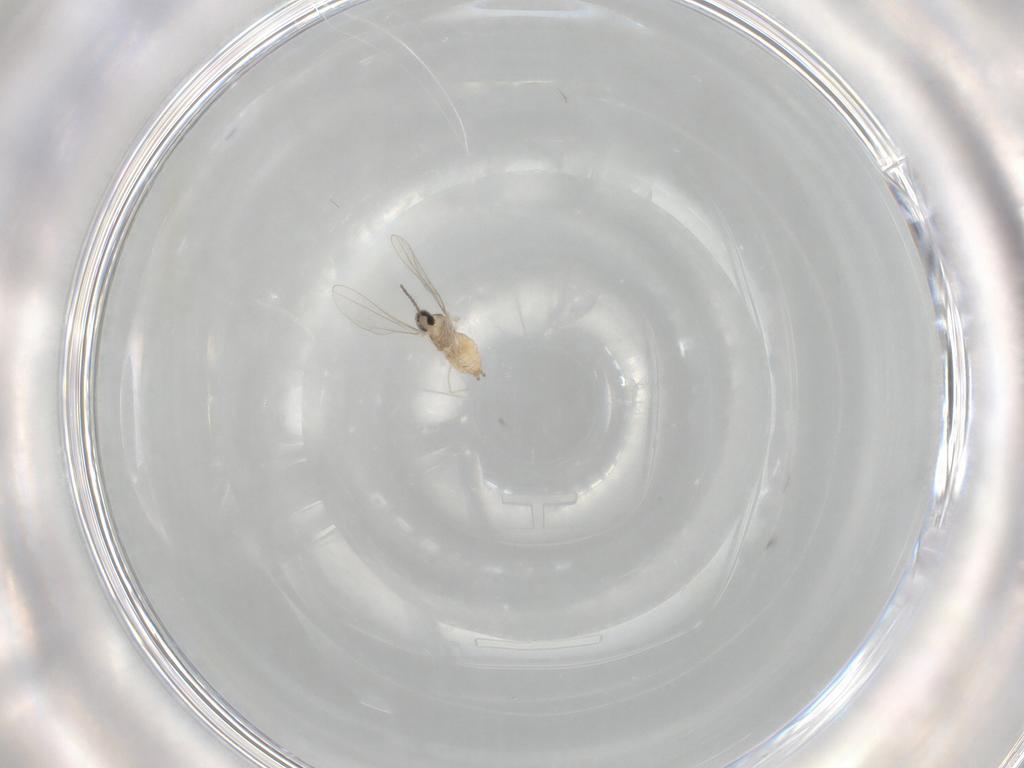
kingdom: Animalia
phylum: Arthropoda
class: Insecta
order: Diptera
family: Cecidomyiidae
